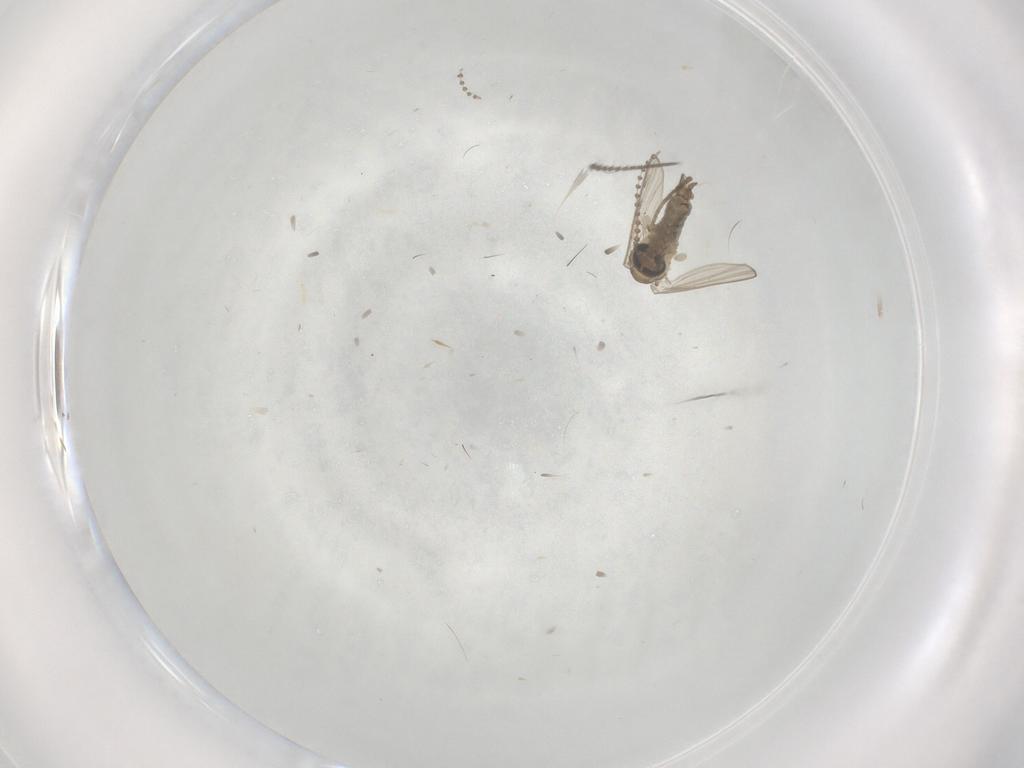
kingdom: Animalia
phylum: Arthropoda
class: Insecta
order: Diptera
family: Psychodidae
